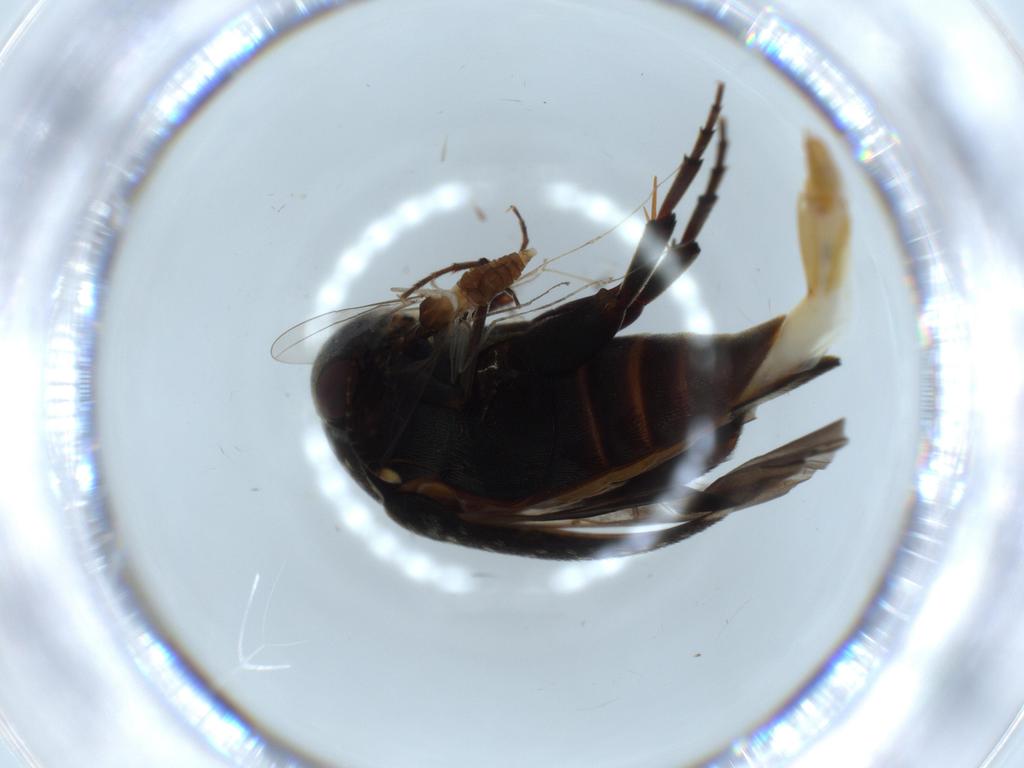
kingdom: Animalia
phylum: Arthropoda
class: Insecta
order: Coleoptera
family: Mordellidae
